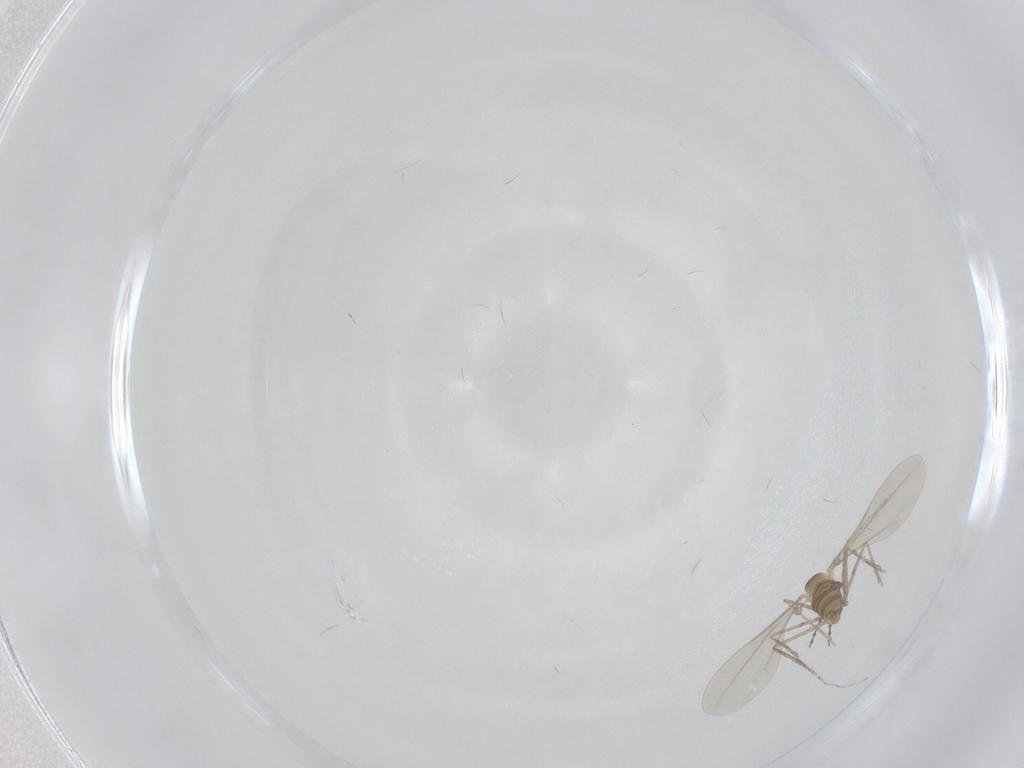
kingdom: Animalia
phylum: Arthropoda
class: Insecta
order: Diptera
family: Cecidomyiidae
